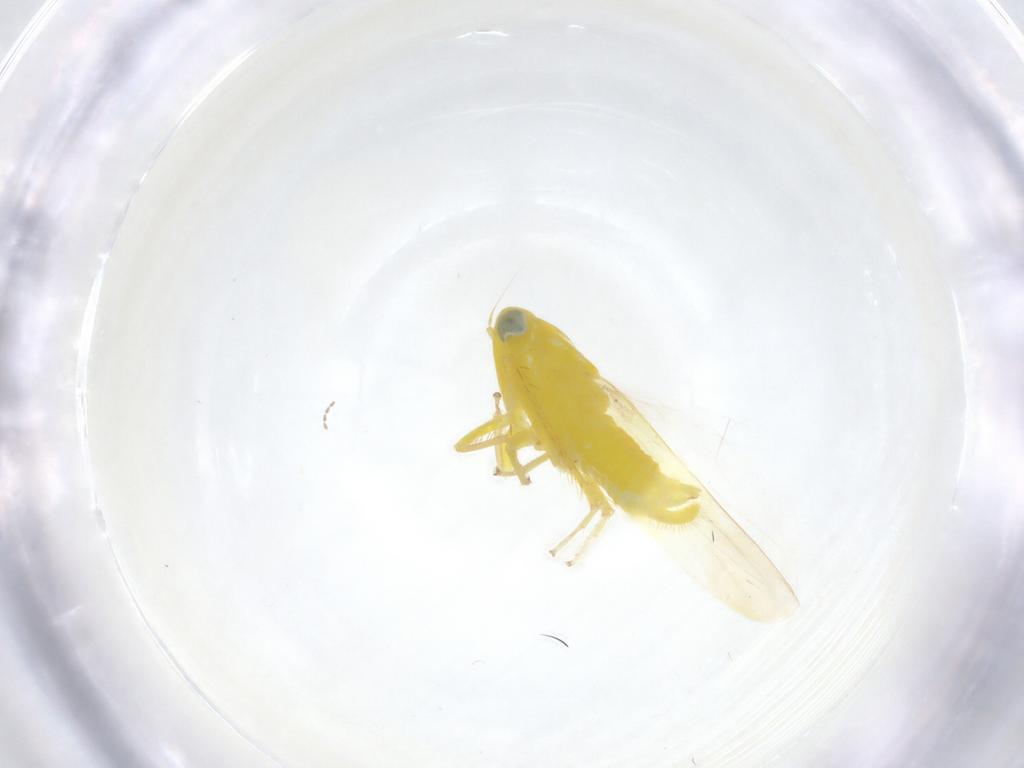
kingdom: Animalia
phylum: Arthropoda
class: Insecta
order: Hemiptera
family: Cicadellidae
